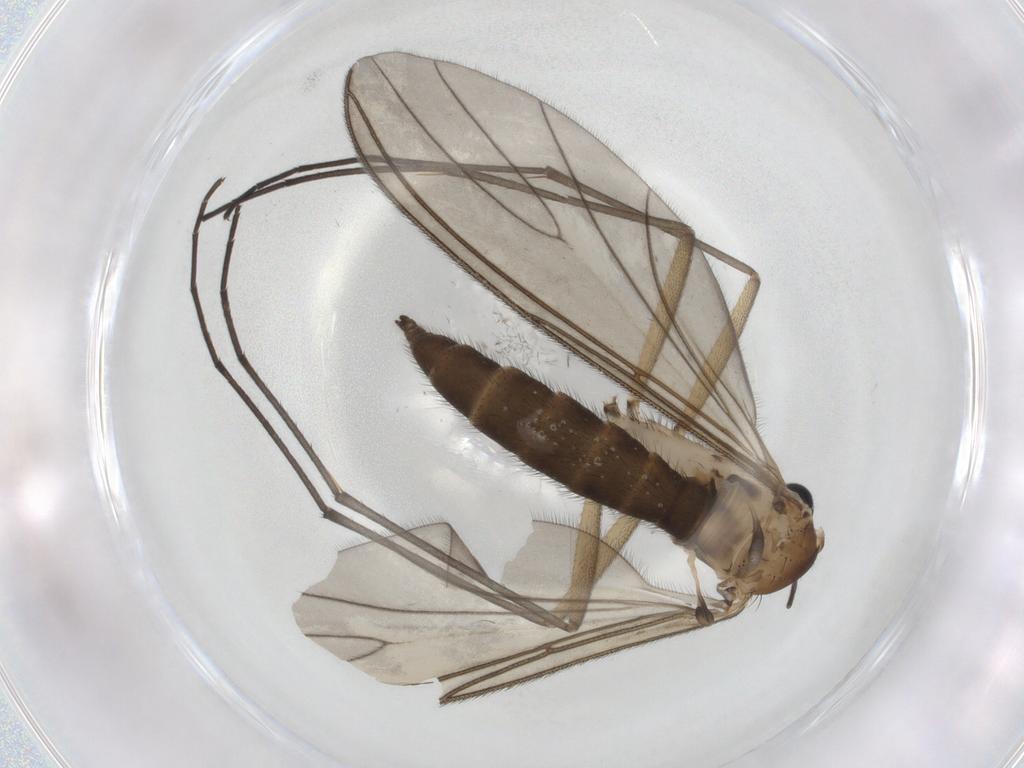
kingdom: Animalia
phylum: Arthropoda
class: Insecta
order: Diptera
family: Sciaridae
